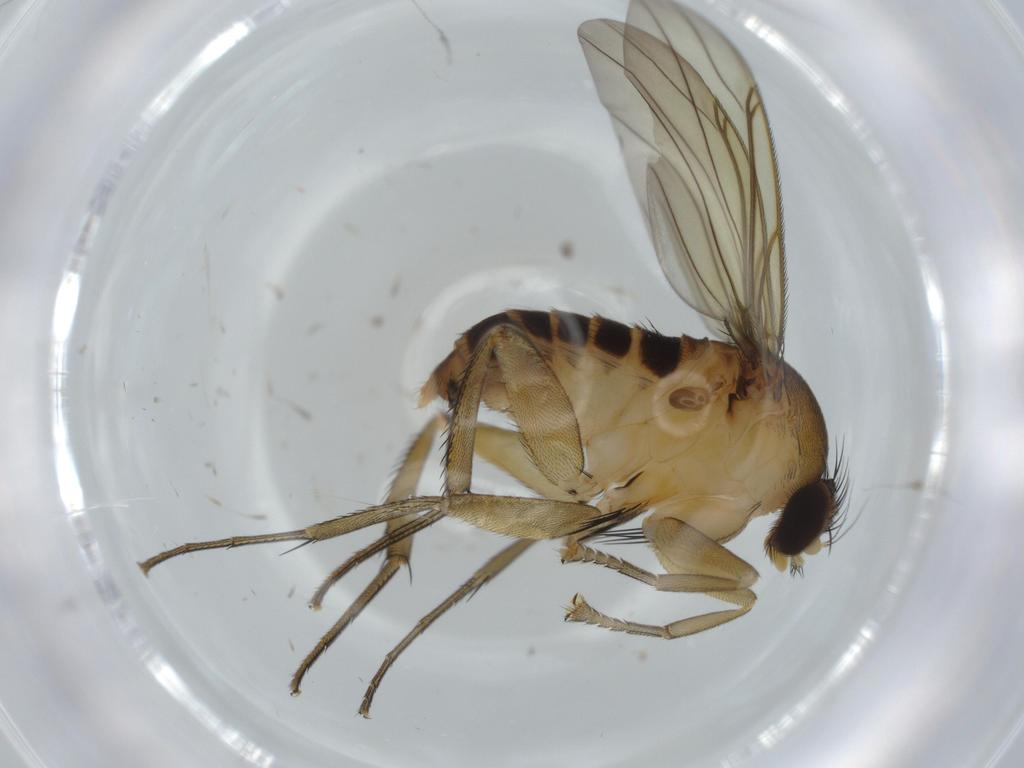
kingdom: Animalia
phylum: Arthropoda
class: Insecta
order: Diptera
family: Phoridae
